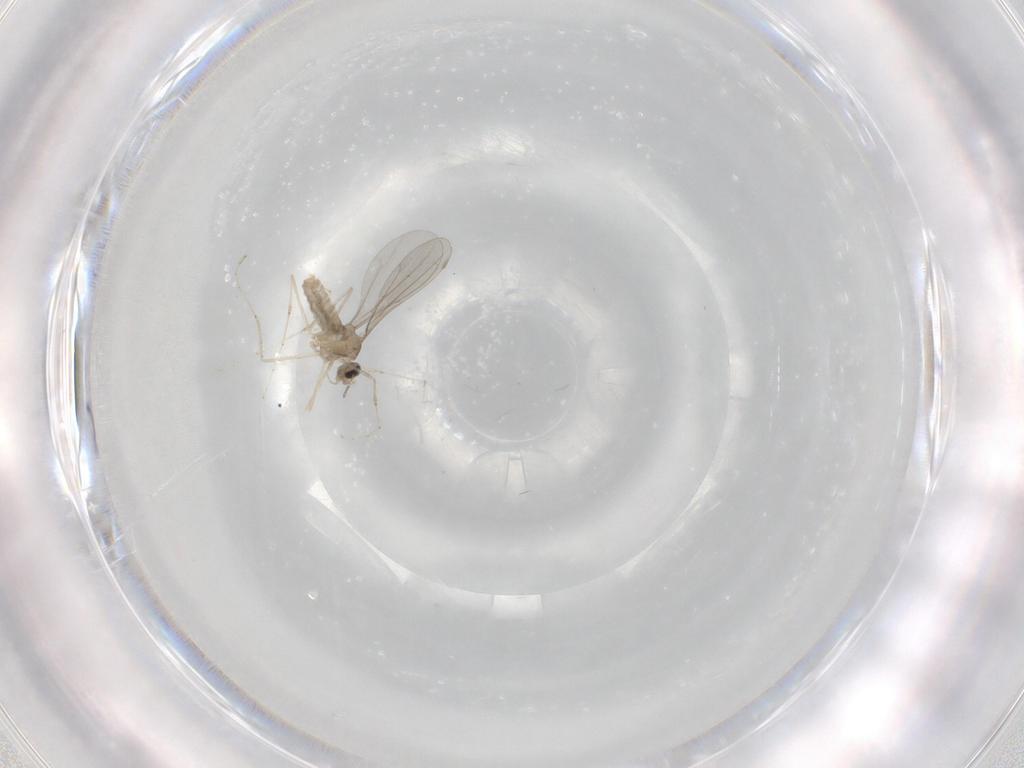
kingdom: Animalia
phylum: Arthropoda
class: Insecta
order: Diptera
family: Cecidomyiidae
